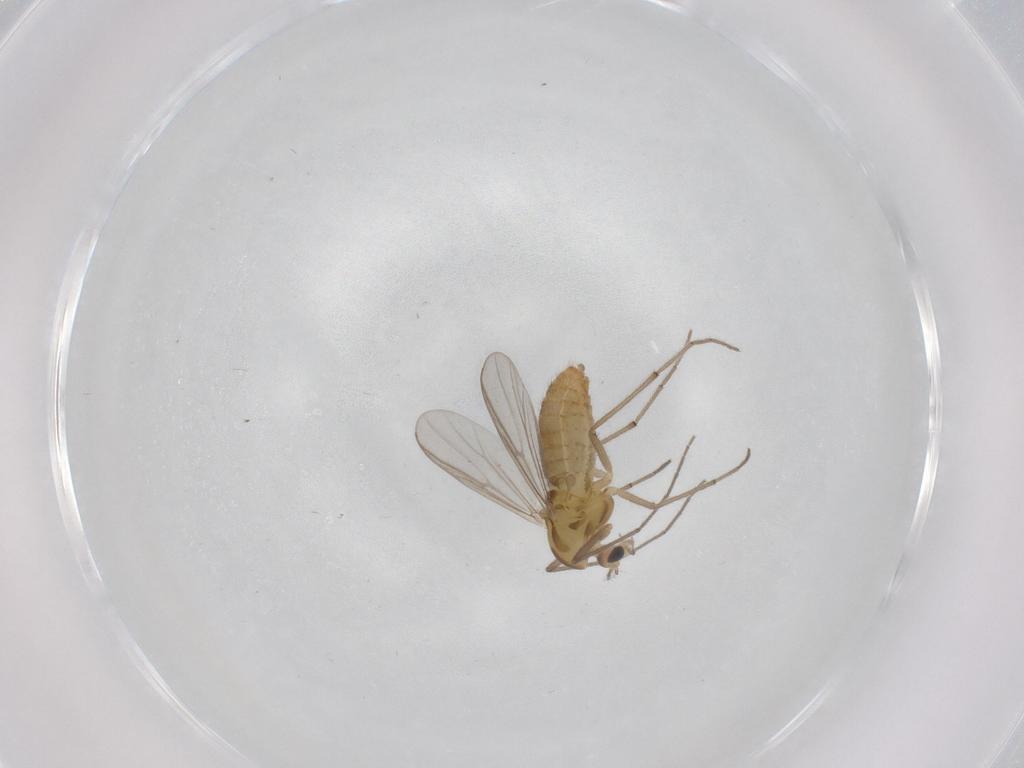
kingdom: Animalia
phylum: Arthropoda
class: Insecta
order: Diptera
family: Chironomidae
